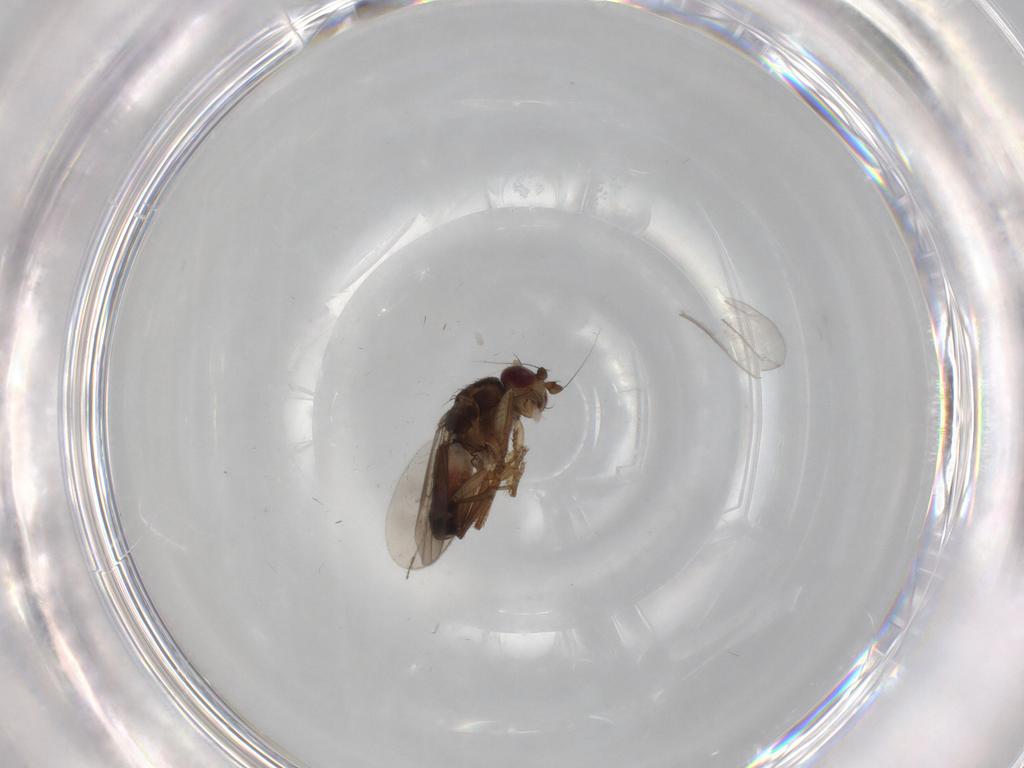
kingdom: Animalia
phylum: Arthropoda
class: Insecta
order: Diptera
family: Sphaeroceridae
